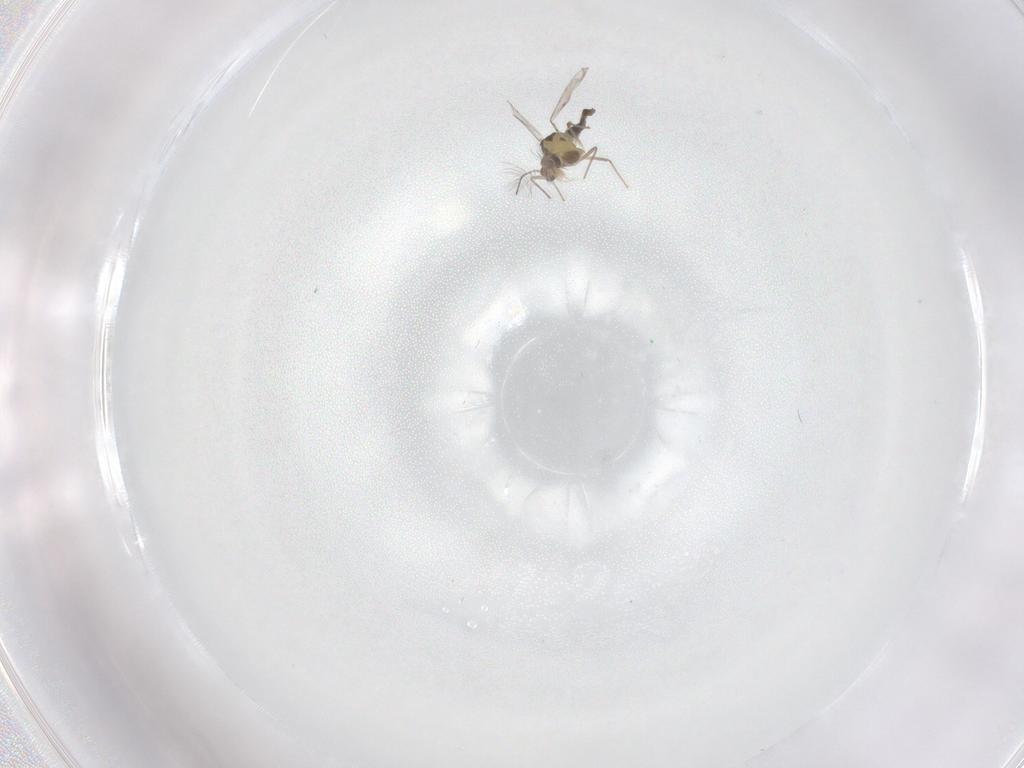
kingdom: Animalia
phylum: Arthropoda
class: Insecta
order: Diptera
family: Chironomidae
